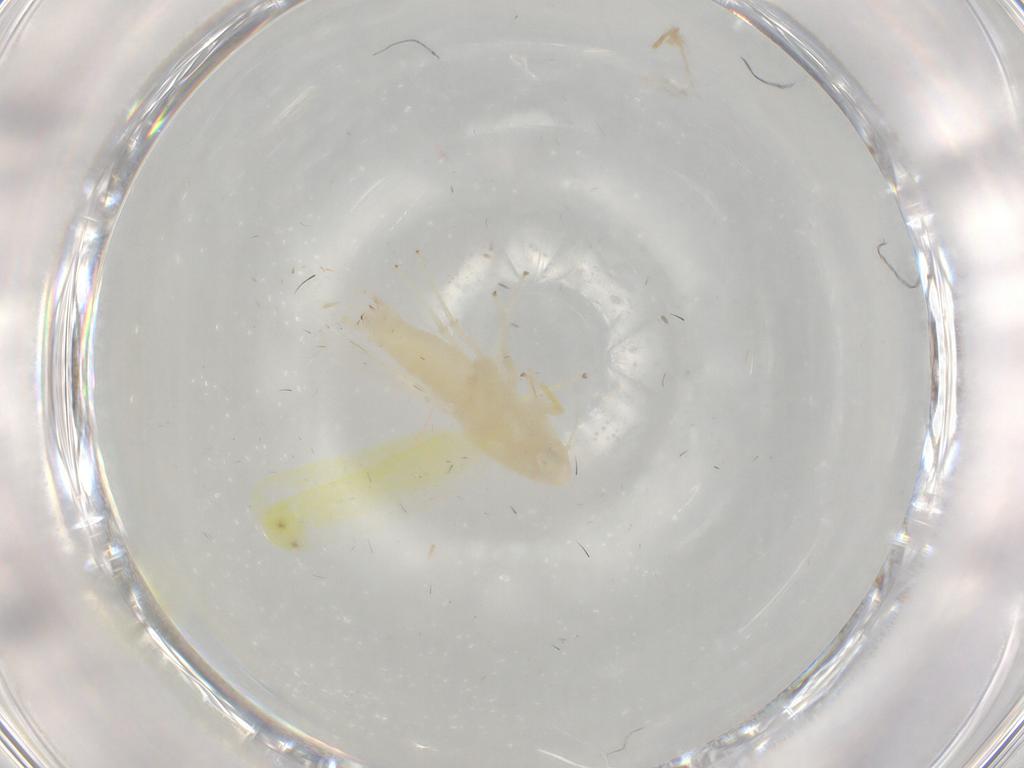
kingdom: Animalia
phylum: Arthropoda
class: Insecta
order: Hemiptera
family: Cicadellidae
